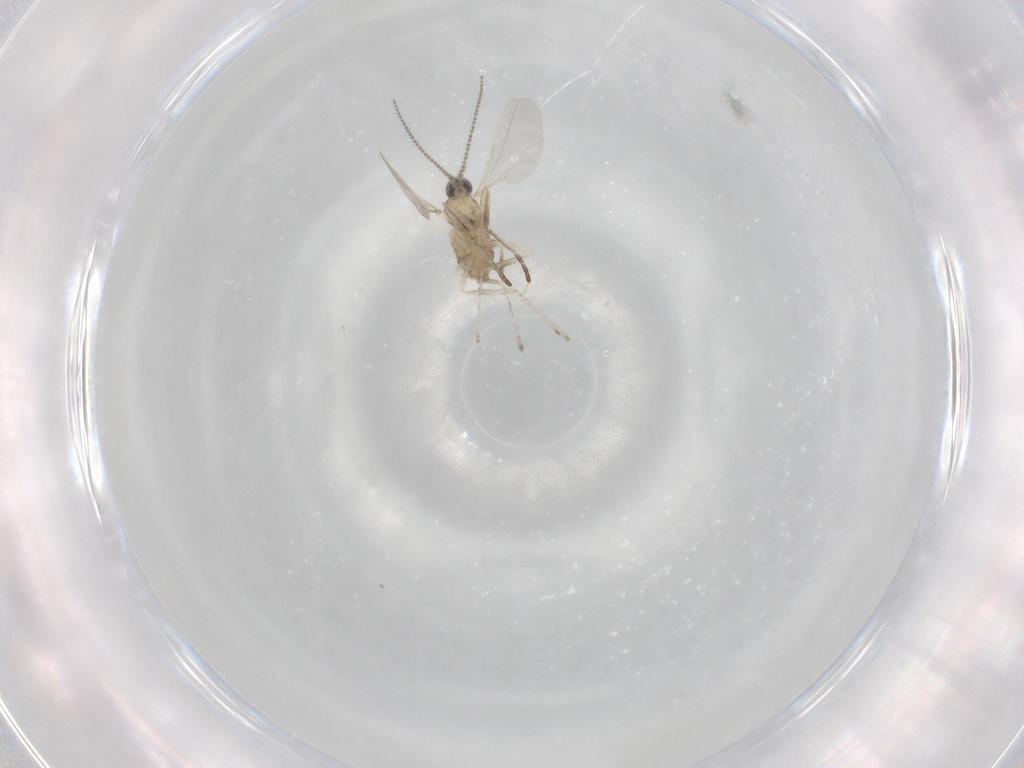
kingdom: Animalia
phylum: Arthropoda
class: Insecta
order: Diptera
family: Cecidomyiidae
